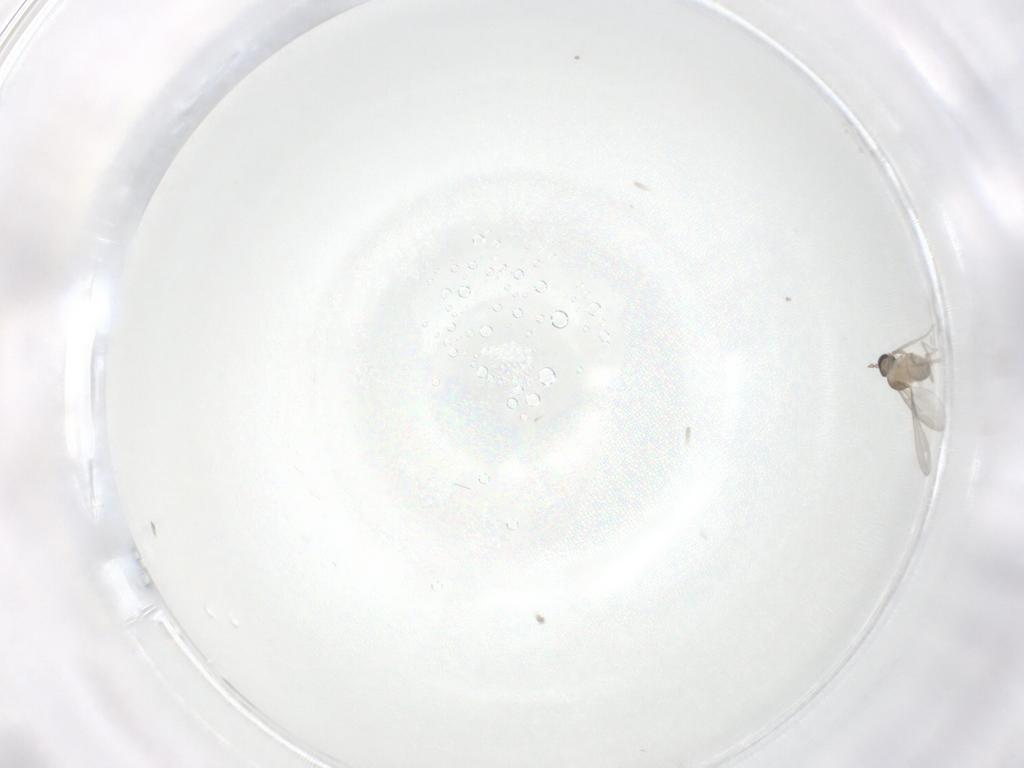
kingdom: Animalia
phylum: Arthropoda
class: Insecta
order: Diptera
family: Cecidomyiidae
